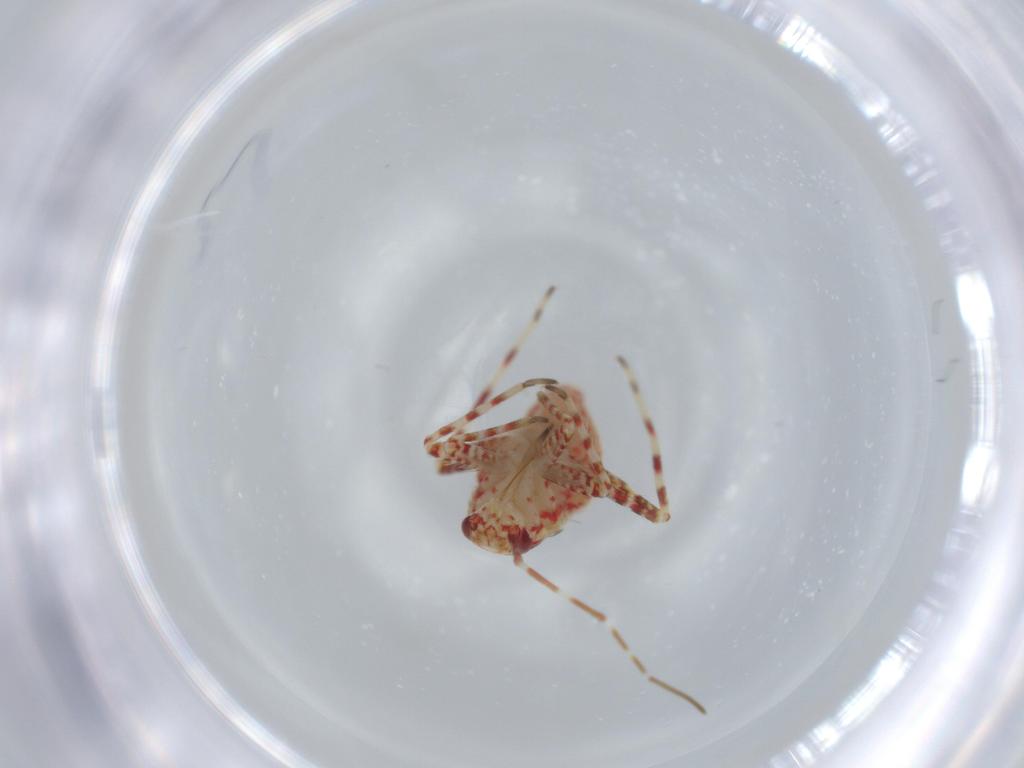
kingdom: Animalia
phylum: Arthropoda
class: Insecta
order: Hemiptera
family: Miridae
